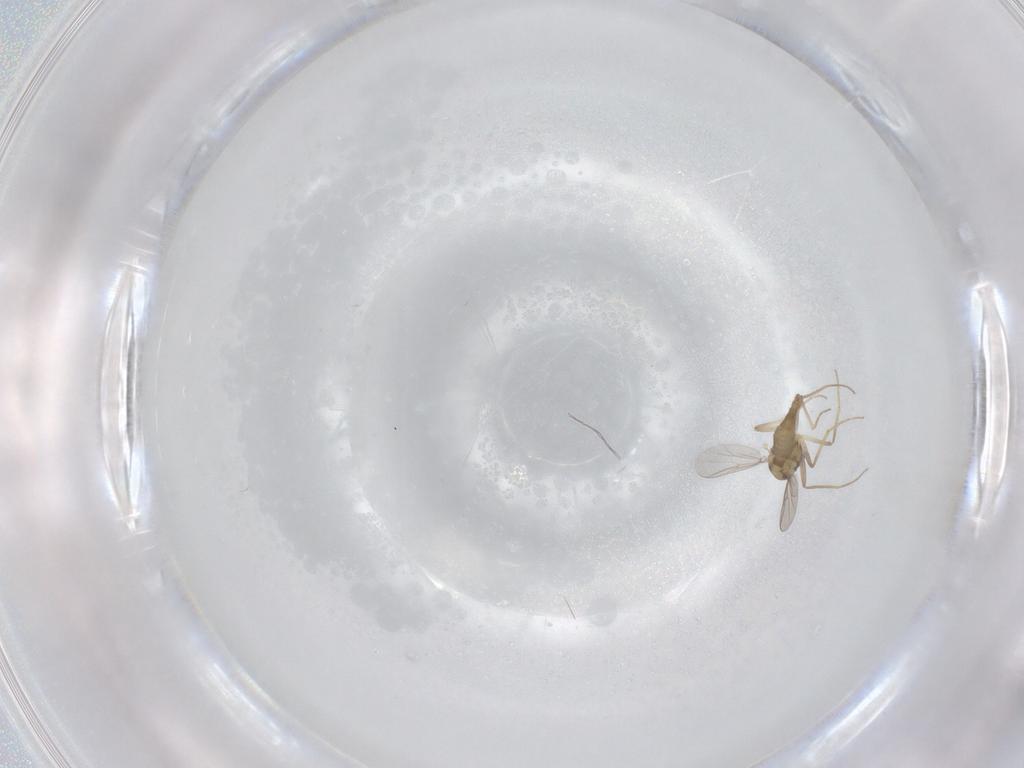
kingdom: Animalia
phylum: Arthropoda
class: Insecta
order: Diptera
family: Chironomidae
